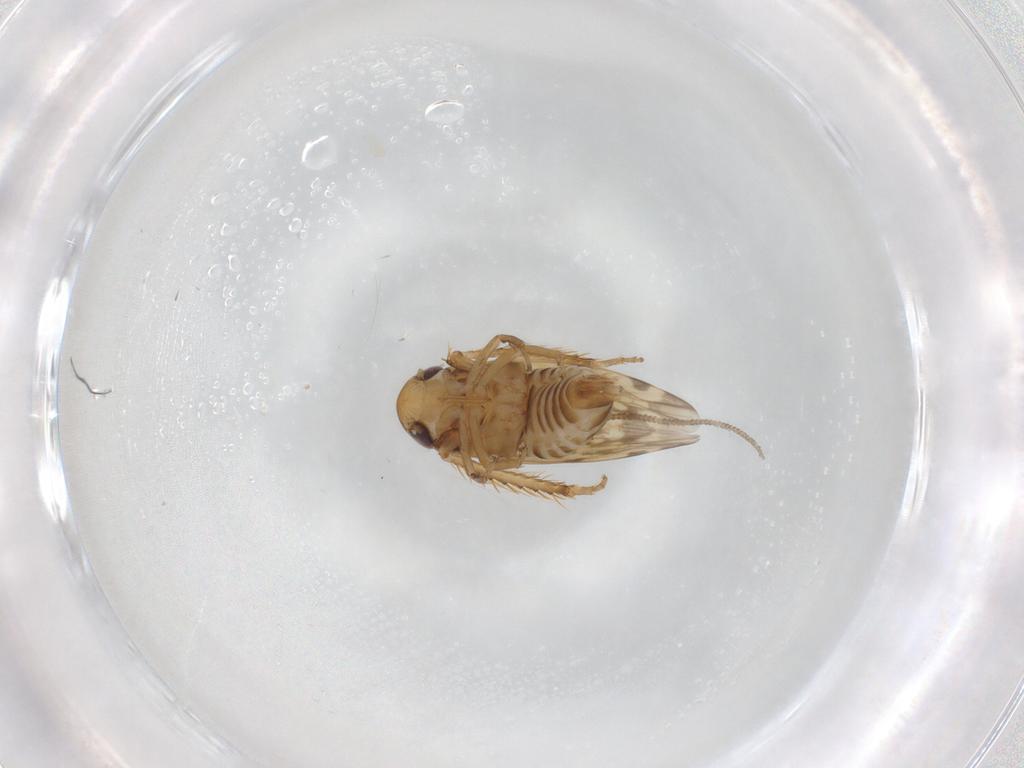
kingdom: Animalia
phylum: Arthropoda
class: Insecta
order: Hemiptera
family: Cicadellidae
